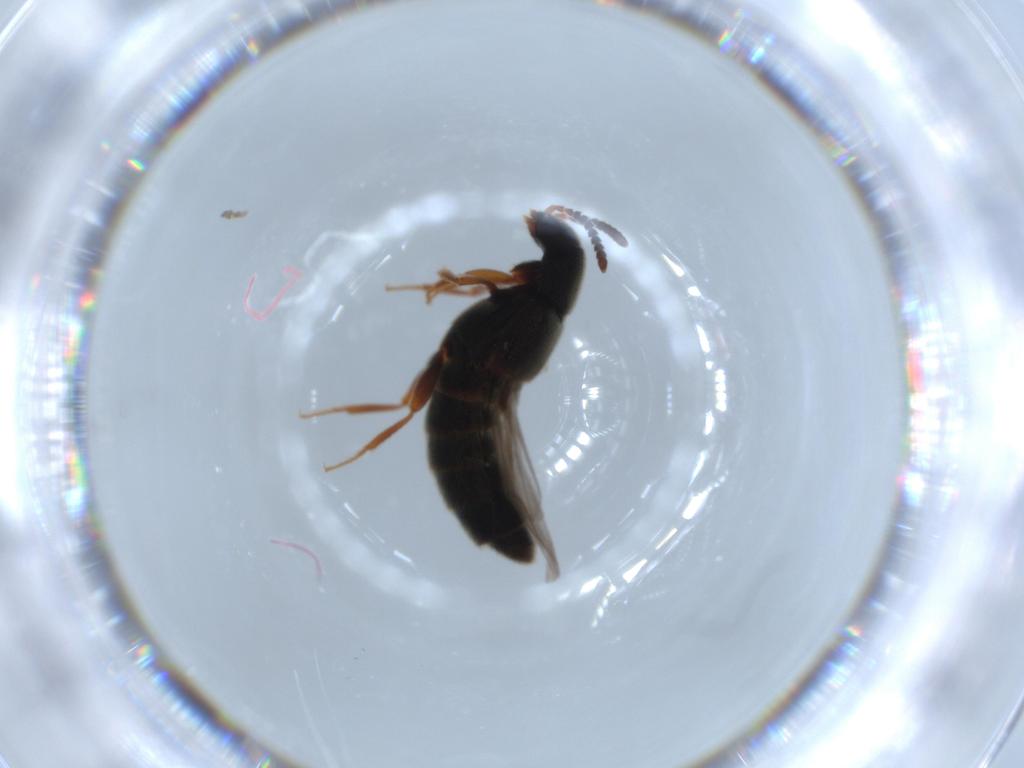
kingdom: Animalia
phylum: Arthropoda
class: Insecta
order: Coleoptera
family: Chrysomelidae
